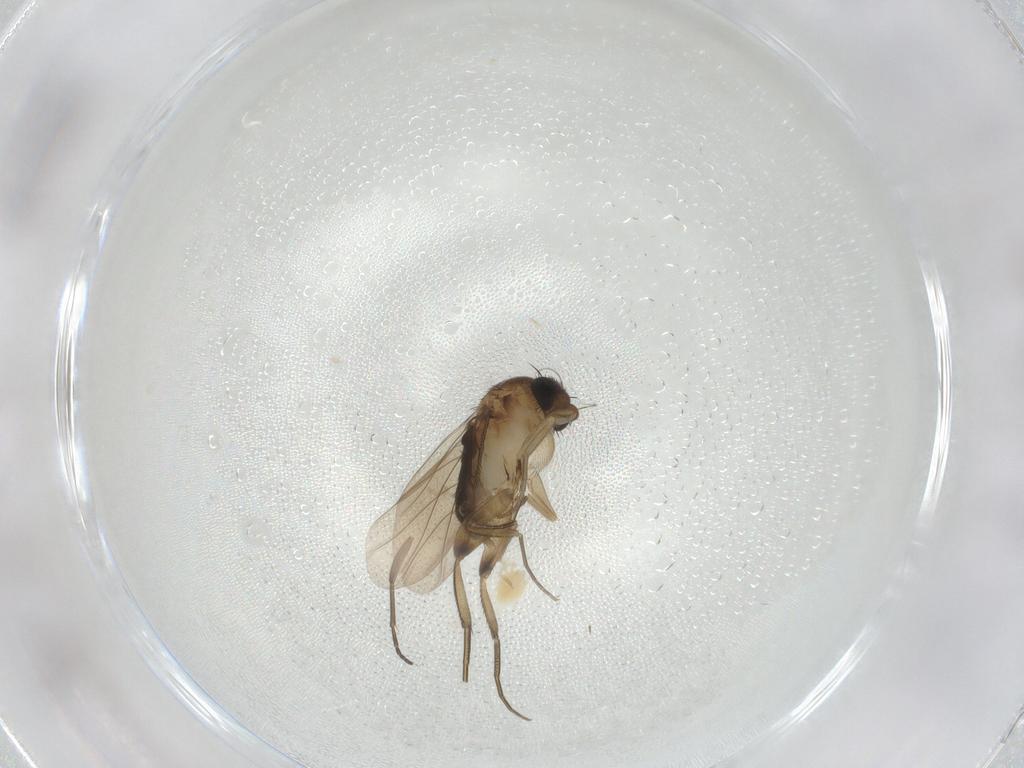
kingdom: Animalia
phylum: Arthropoda
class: Insecta
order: Diptera
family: Phoridae
